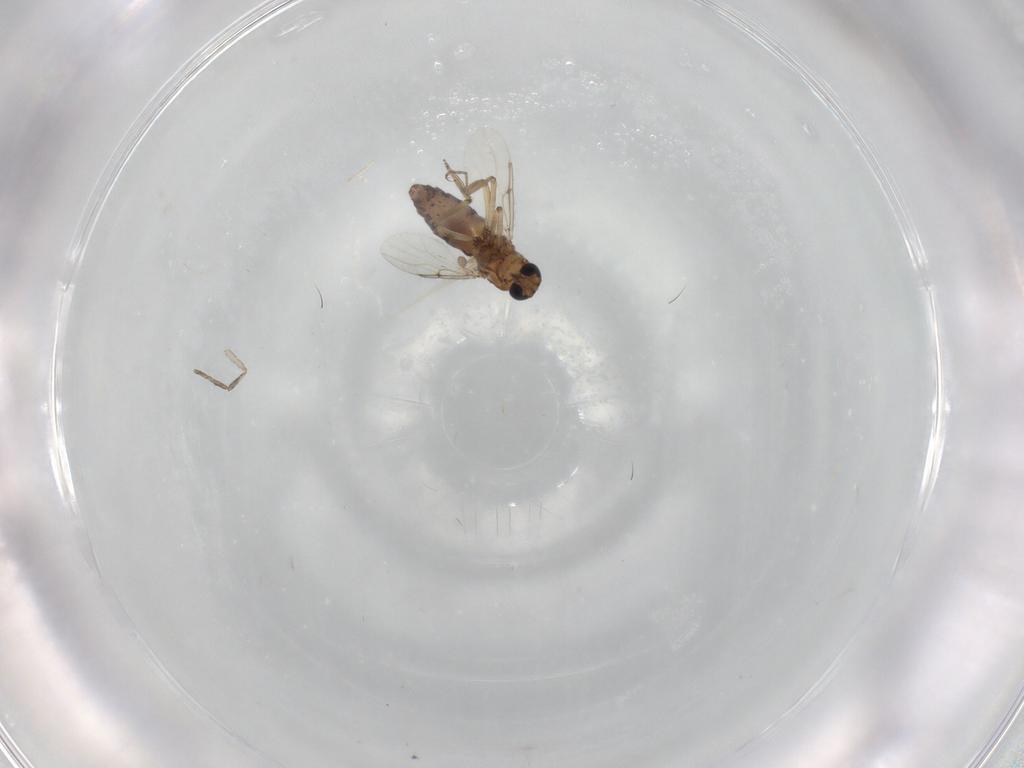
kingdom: Animalia
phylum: Arthropoda
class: Insecta
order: Diptera
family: Ceratopogonidae
